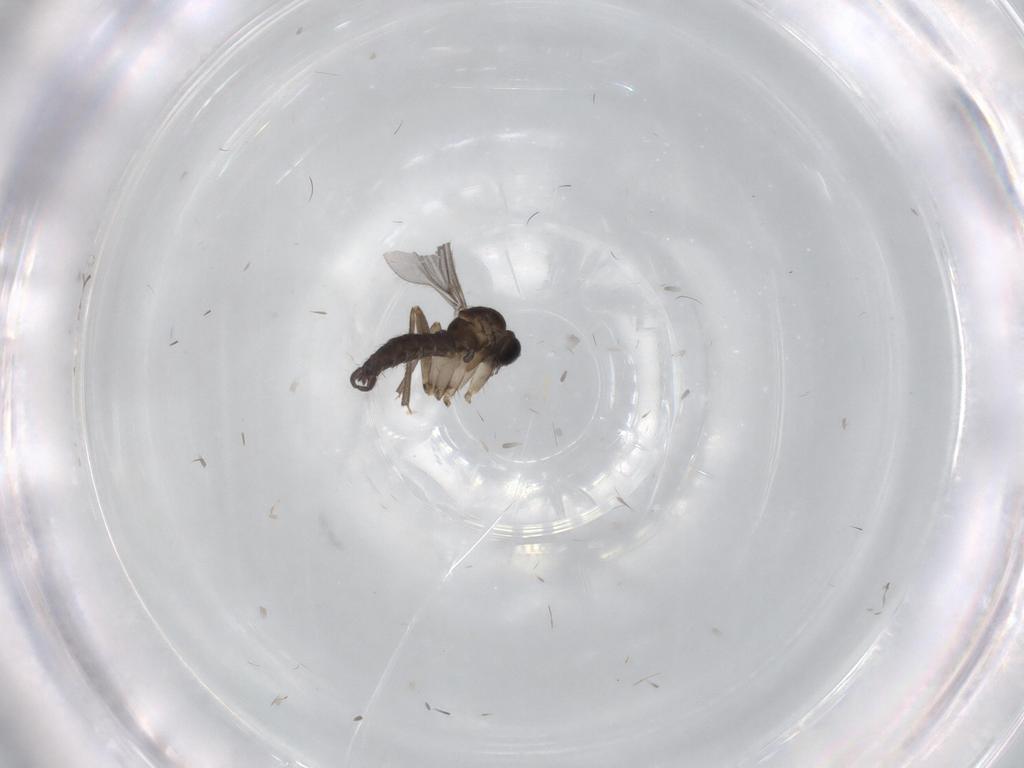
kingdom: Animalia
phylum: Arthropoda
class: Insecta
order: Diptera
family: Sciaridae
